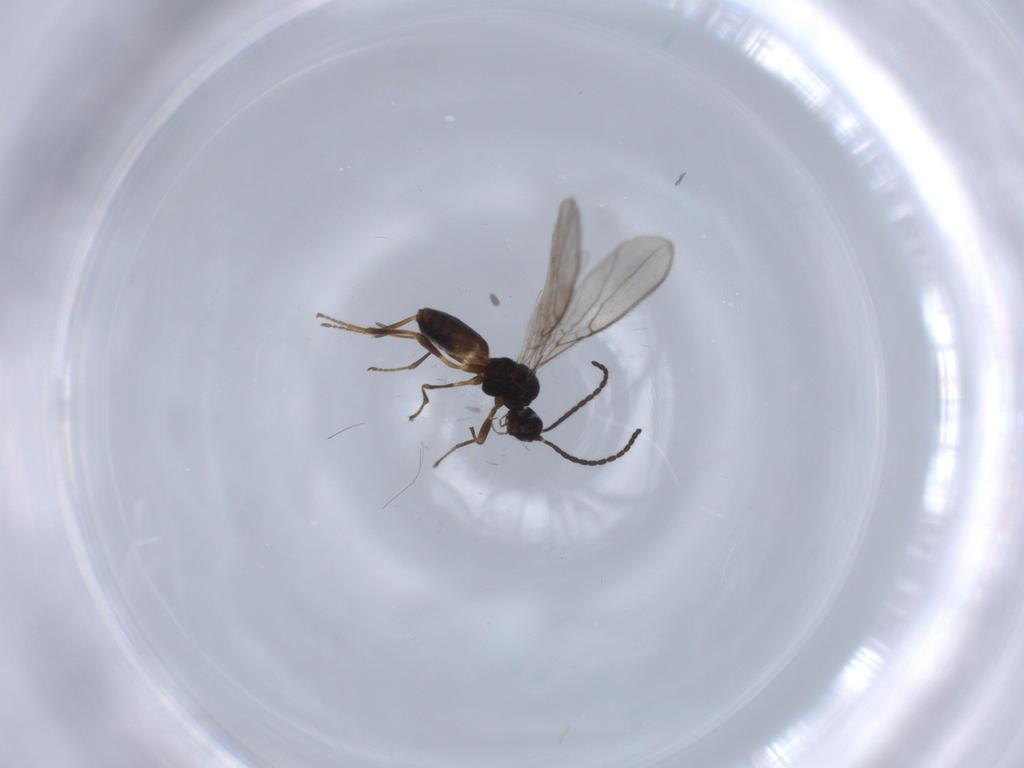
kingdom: Animalia
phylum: Arthropoda
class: Insecta
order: Hymenoptera
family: Braconidae
